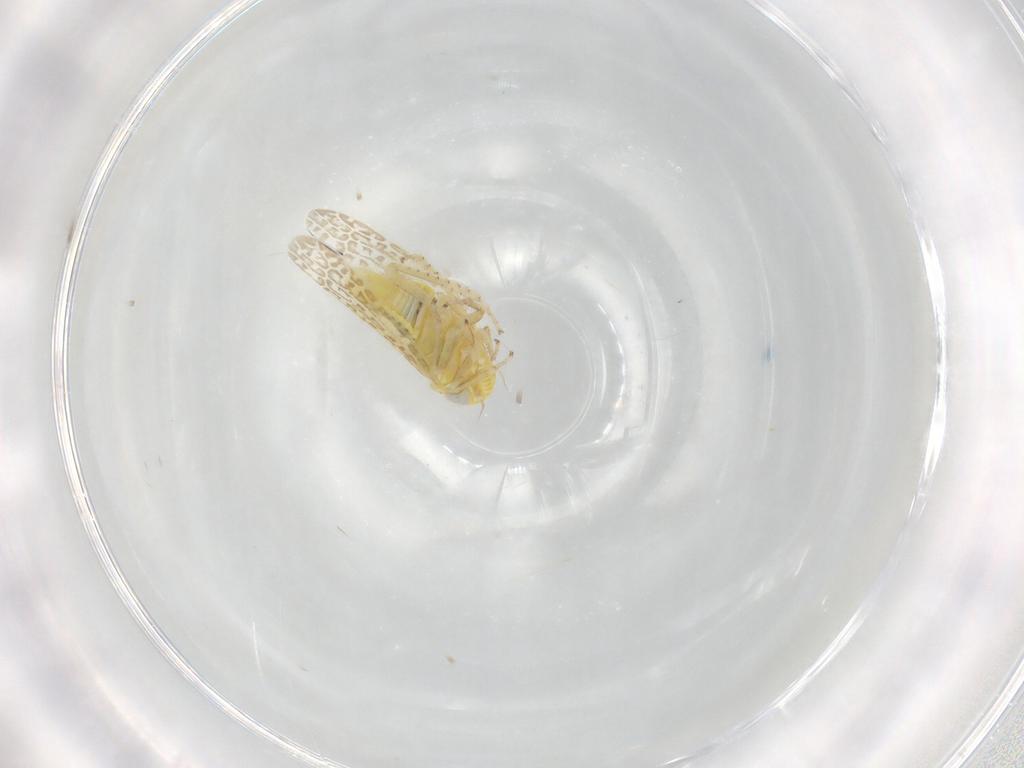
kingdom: Animalia
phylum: Arthropoda
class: Insecta
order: Hemiptera
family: Cicadellidae
